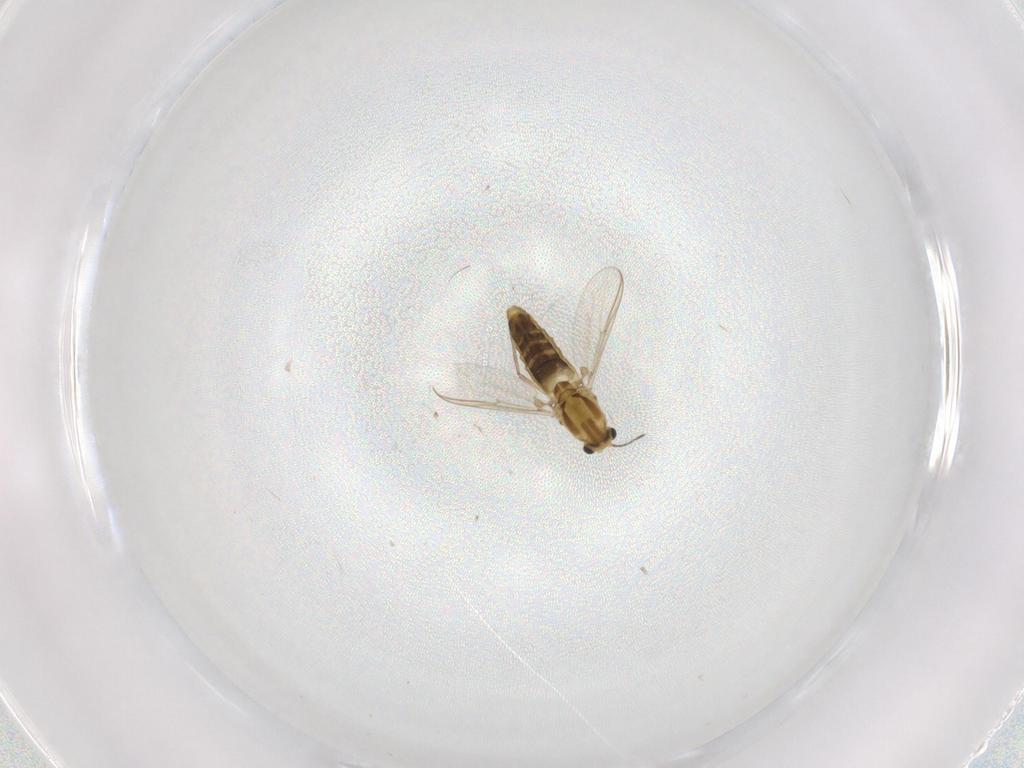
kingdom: Animalia
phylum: Arthropoda
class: Insecta
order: Diptera
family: Chironomidae
